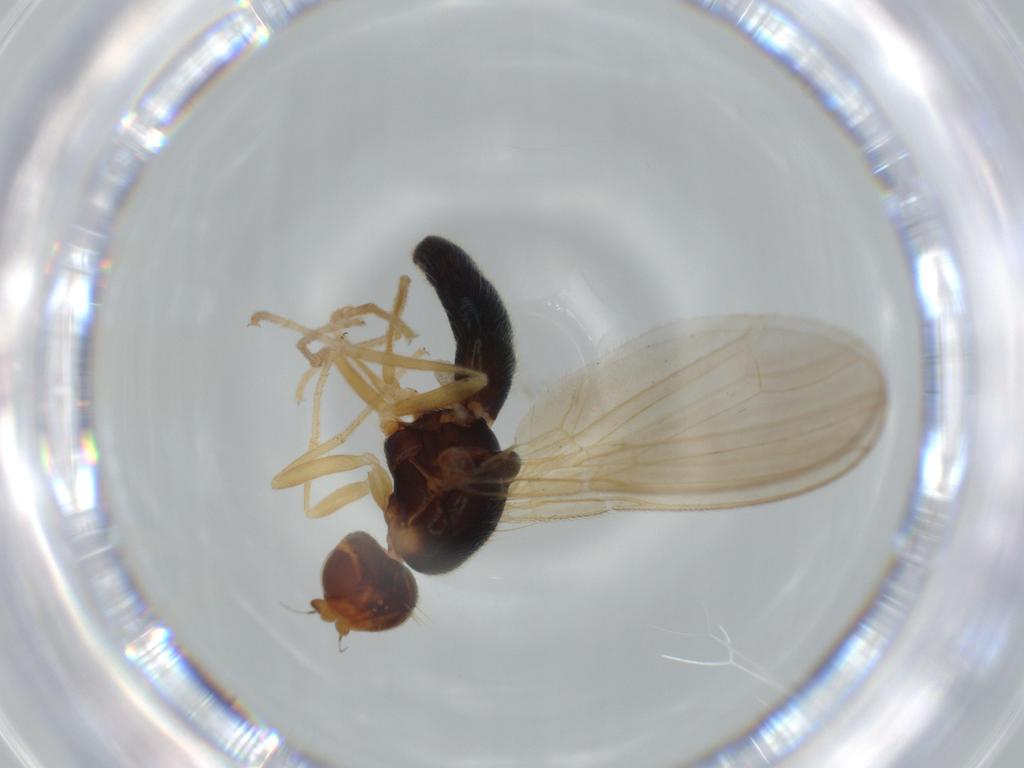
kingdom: Animalia
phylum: Arthropoda
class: Insecta
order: Diptera
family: Psilidae
